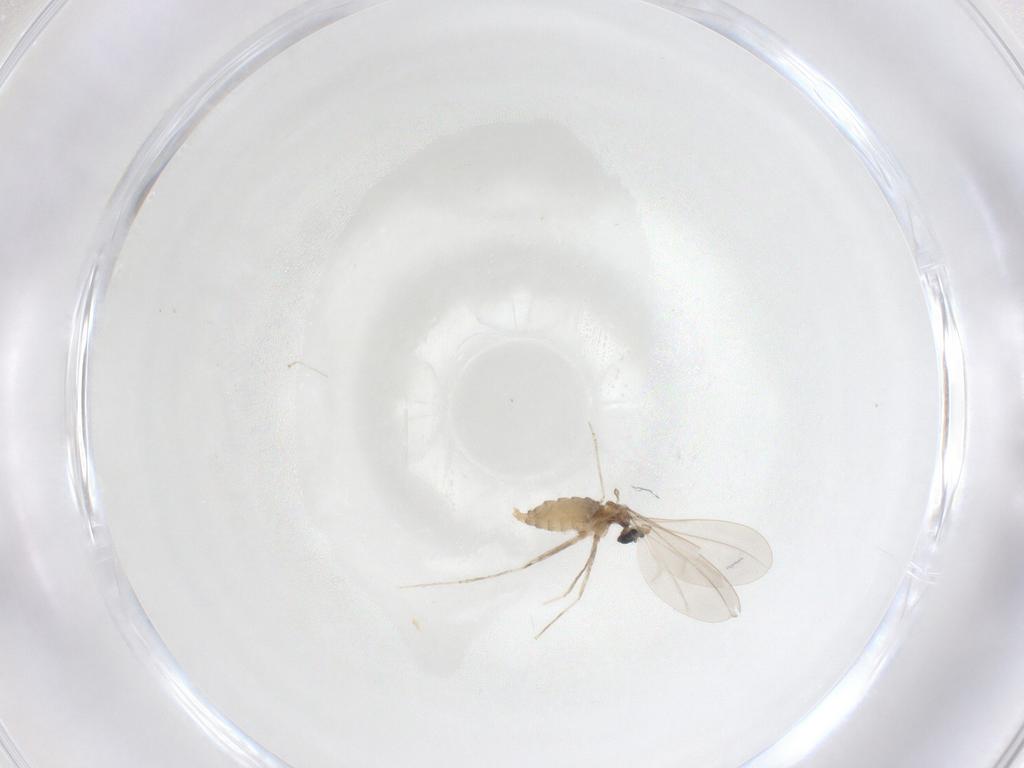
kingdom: Animalia
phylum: Arthropoda
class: Insecta
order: Diptera
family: Cecidomyiidae
